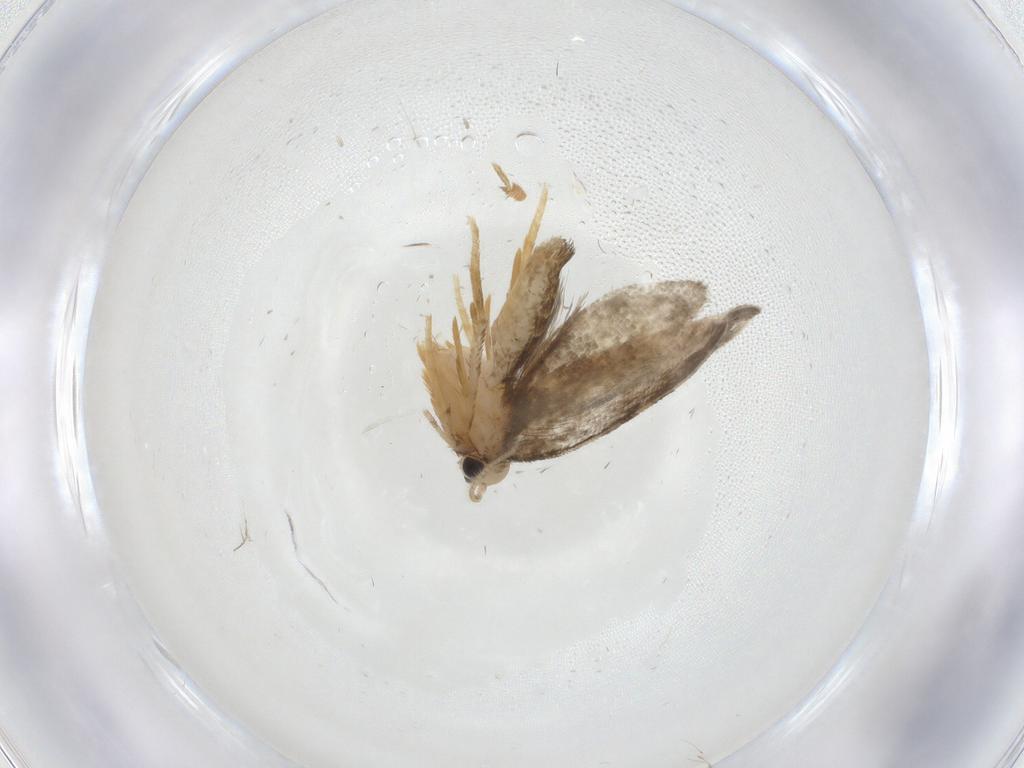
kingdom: Animalia
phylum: Arthropoda
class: Insecta
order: Lepidoptera
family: Psychidae
